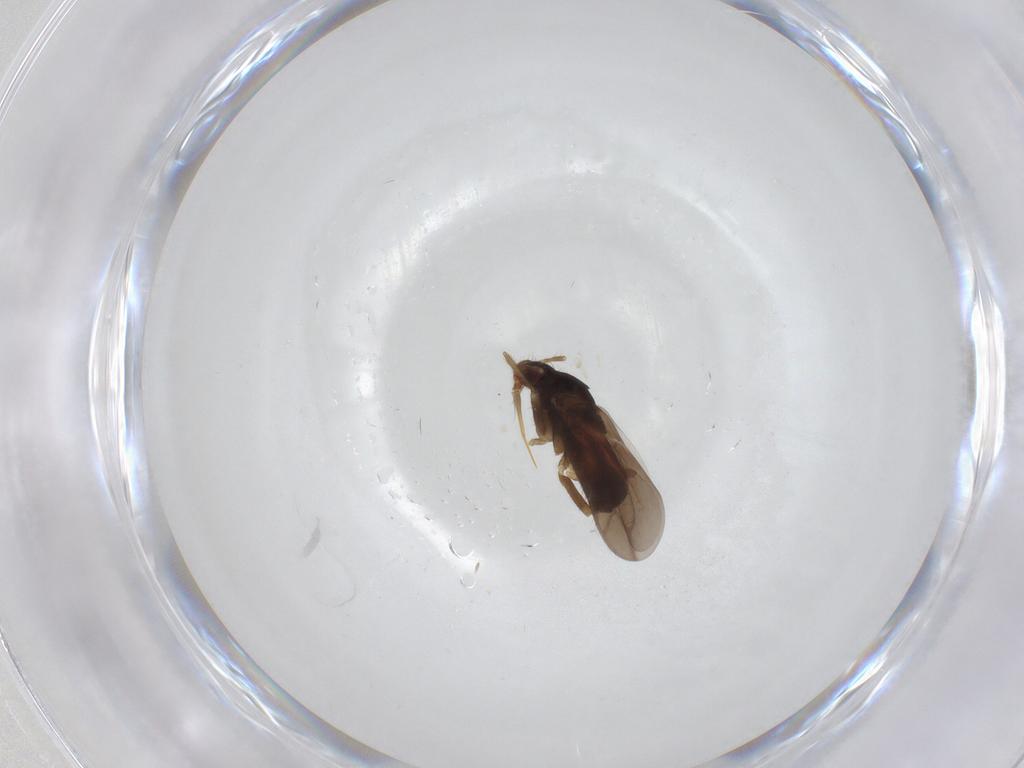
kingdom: Animalia
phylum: Arthropoda
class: Insecta
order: Hemiptera
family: Ceratocombidae
